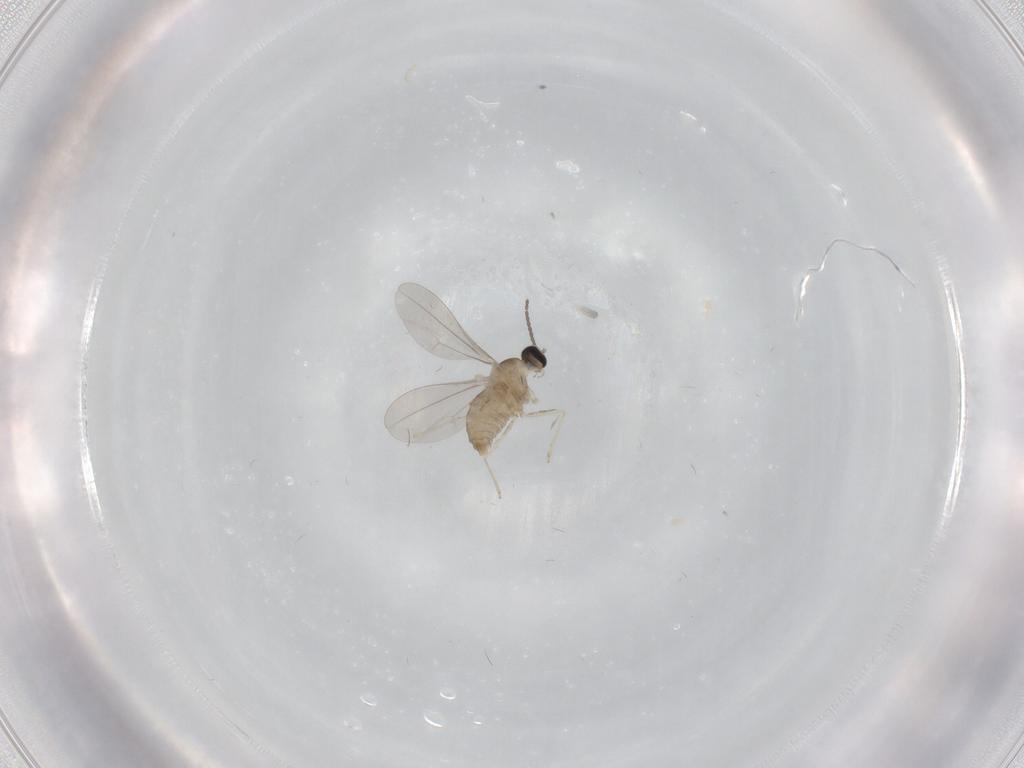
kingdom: Animalia
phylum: Arthropoda
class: Insecta
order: Diptera
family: Cecidomyiidae
